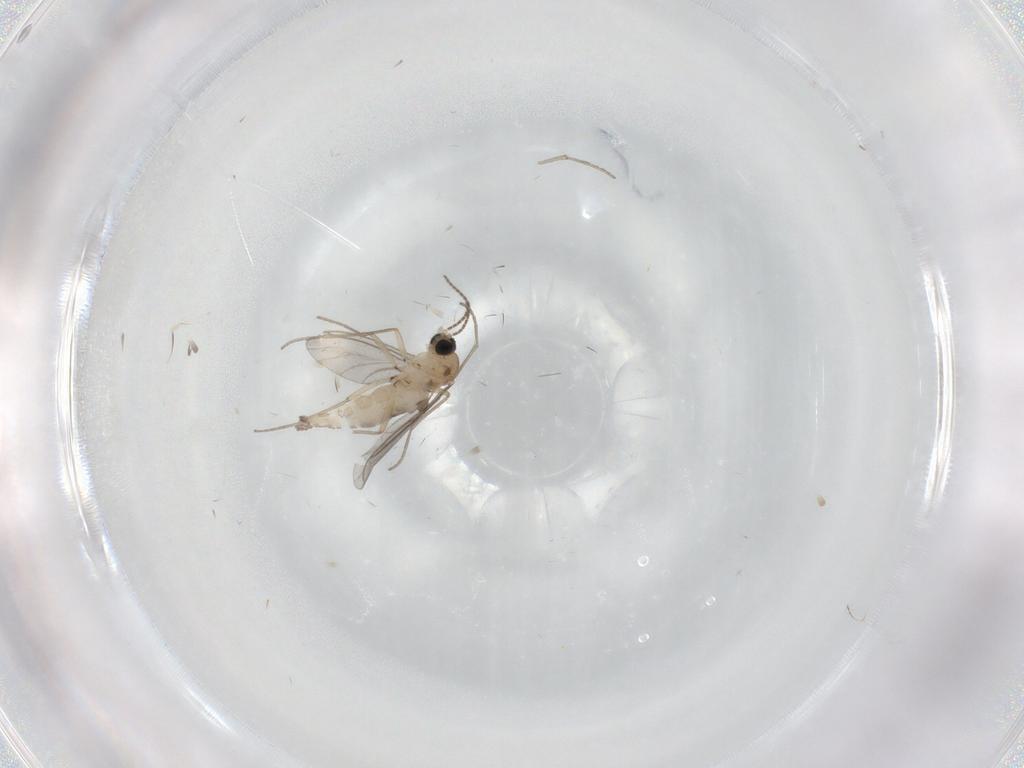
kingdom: Animalia
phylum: Arthropoda
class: Insecta
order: Diptera
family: Sciaridae
